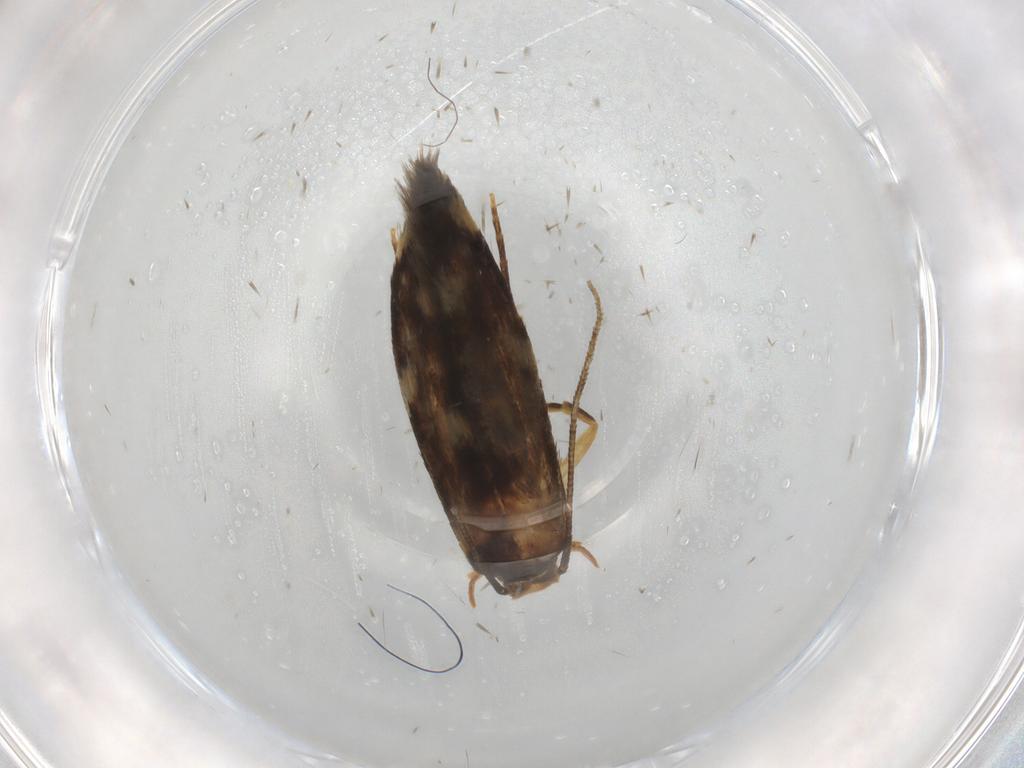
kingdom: Animalia
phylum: Arthropoda
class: Insecta
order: Lepidoptera
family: Tineidae
